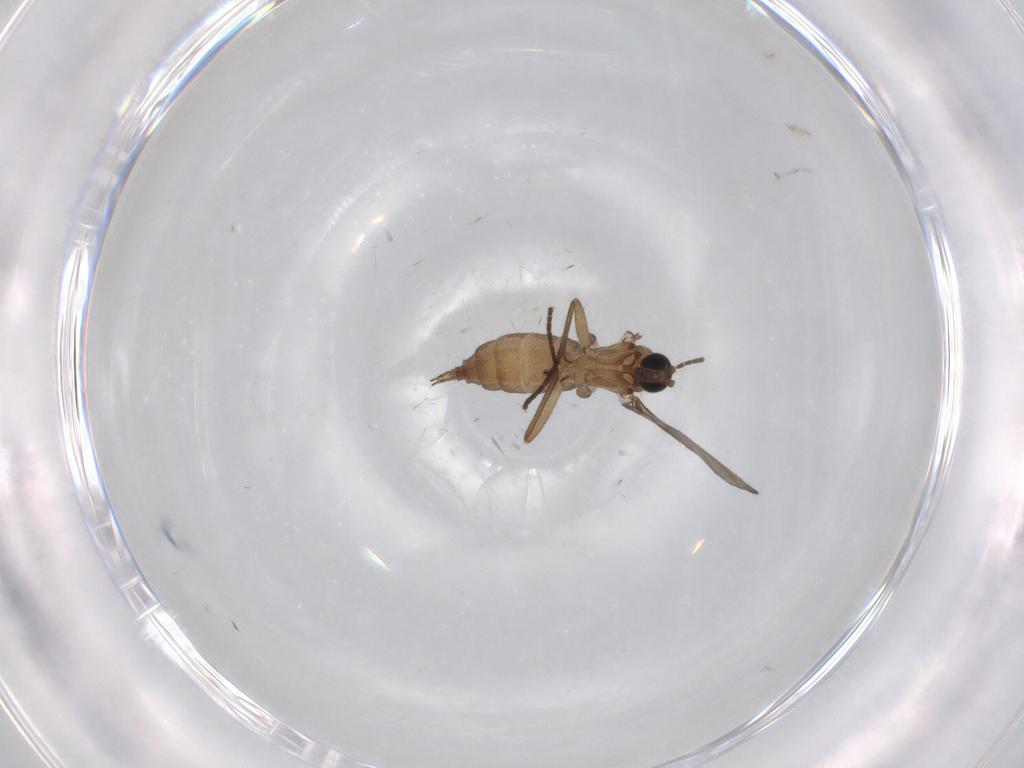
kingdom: Animalia
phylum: Arthropoda
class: Insecta
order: Diptera
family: Sciaridae
